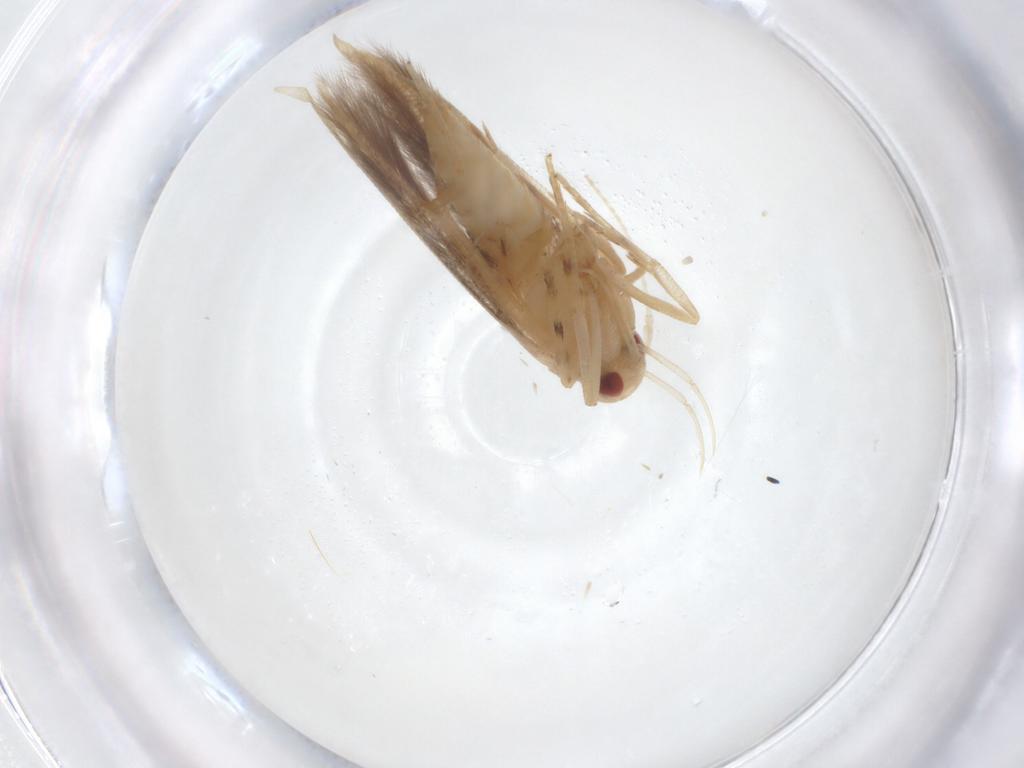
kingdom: Animalia
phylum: Arthropoda
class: Insecta
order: Lepidoptera
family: Cosmopterigidae
